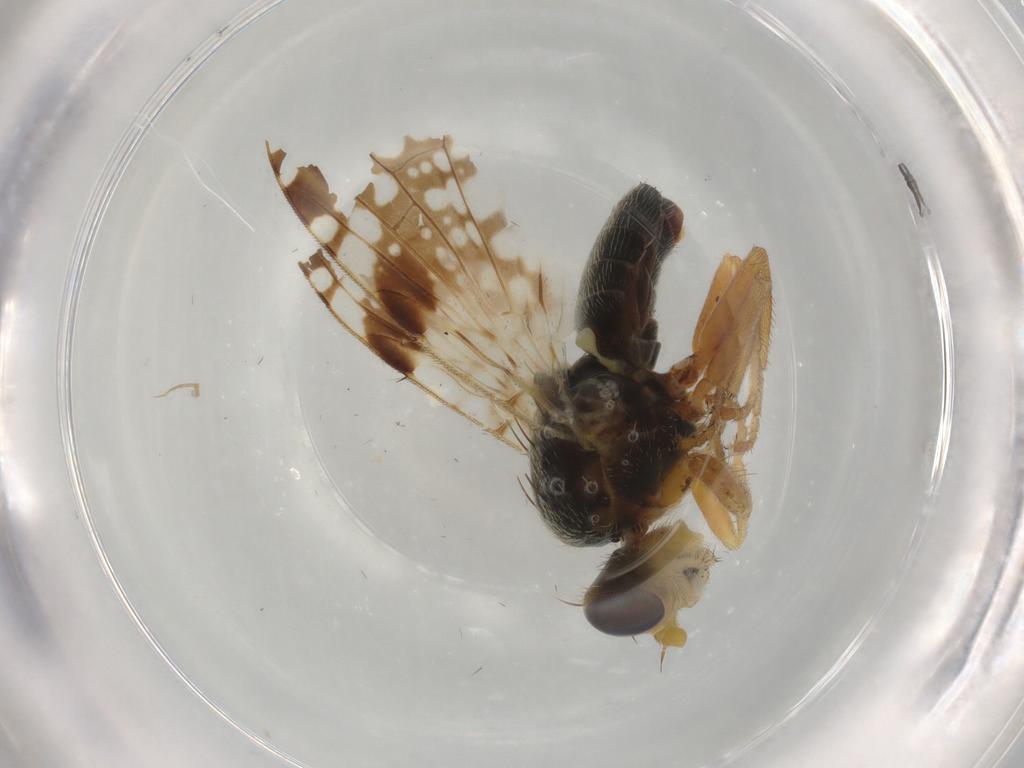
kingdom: Animalia
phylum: Arthropoda
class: Insecta
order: Diptera
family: Tephritidae
